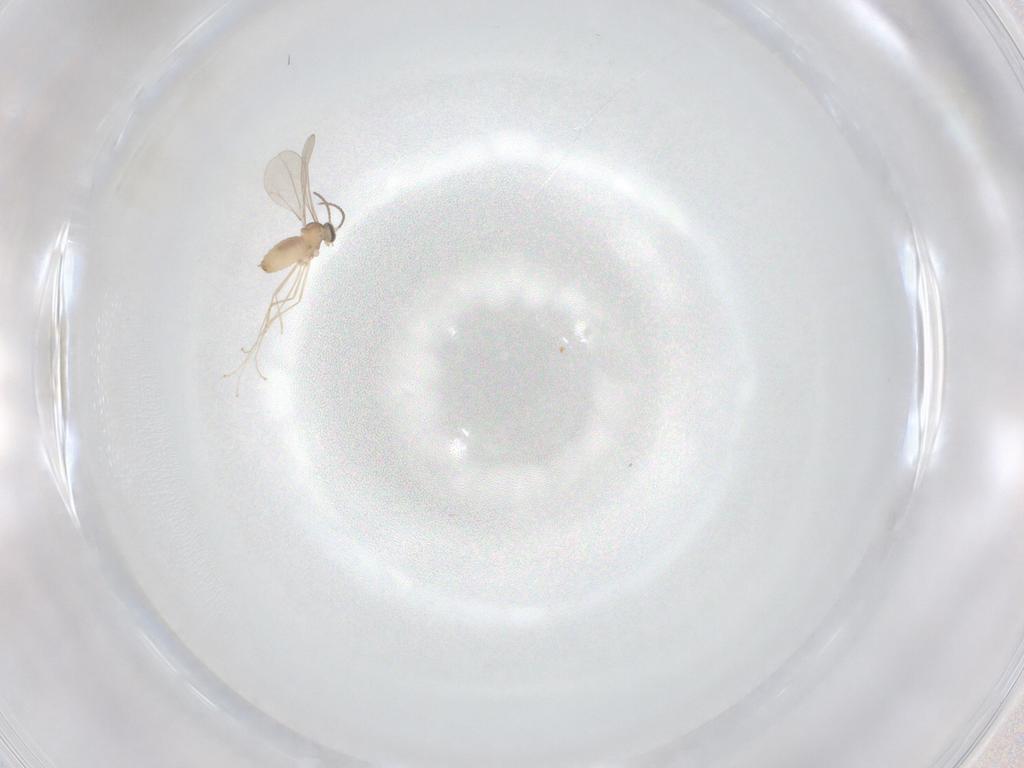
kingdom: Animalia
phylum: Arthropoda
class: Insecta
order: Diptera
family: Cecidomyiidae
